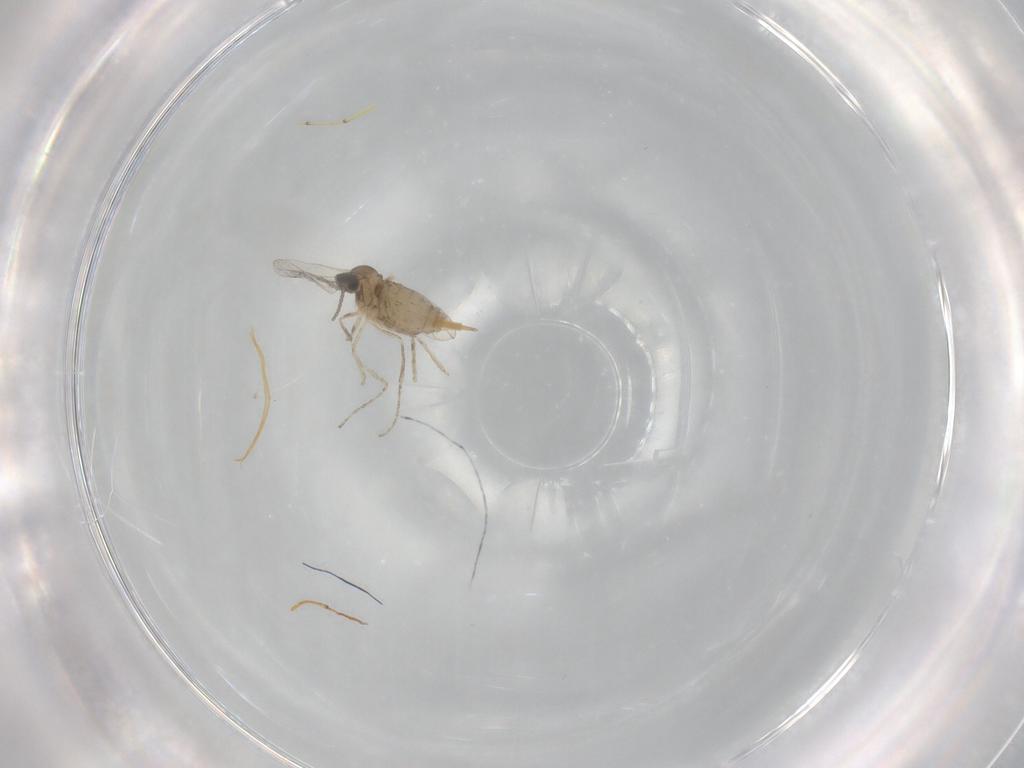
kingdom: Animalia
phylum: Arthropoda
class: Insecta
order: Diptera
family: Cecidomyiidae
